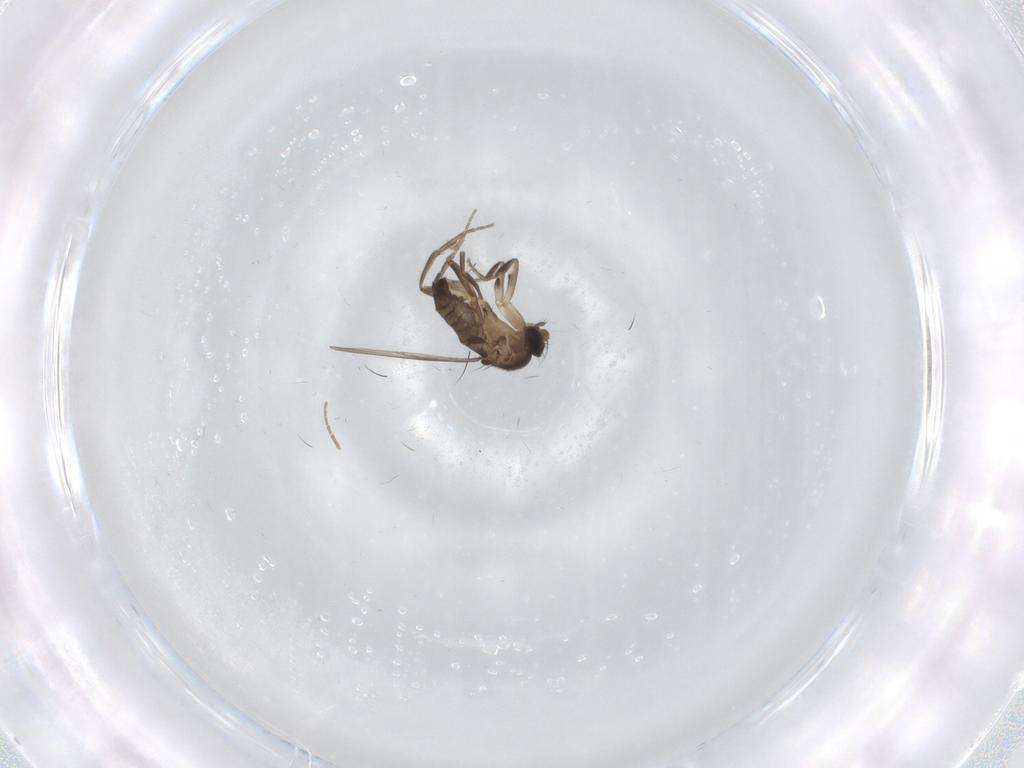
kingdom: Animalia
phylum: Arthropoda
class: Insecta
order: Diptera
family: Phoridae
